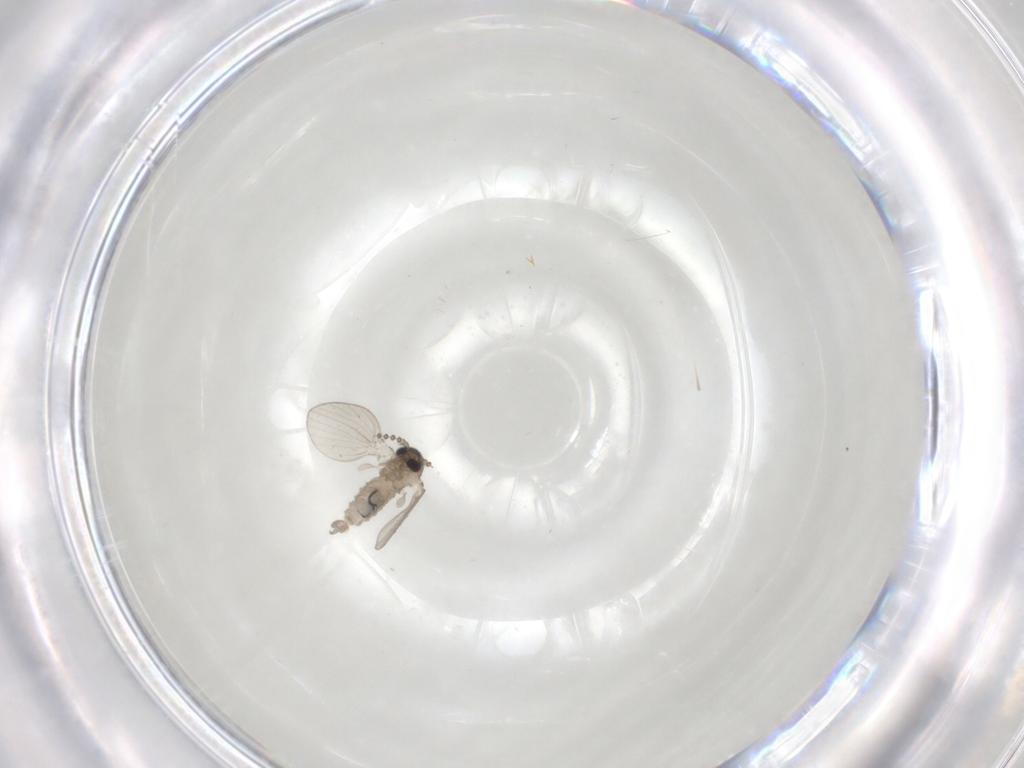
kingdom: Animalia
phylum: Arthropoda
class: Insecta
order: Diptera
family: Psychodidae
